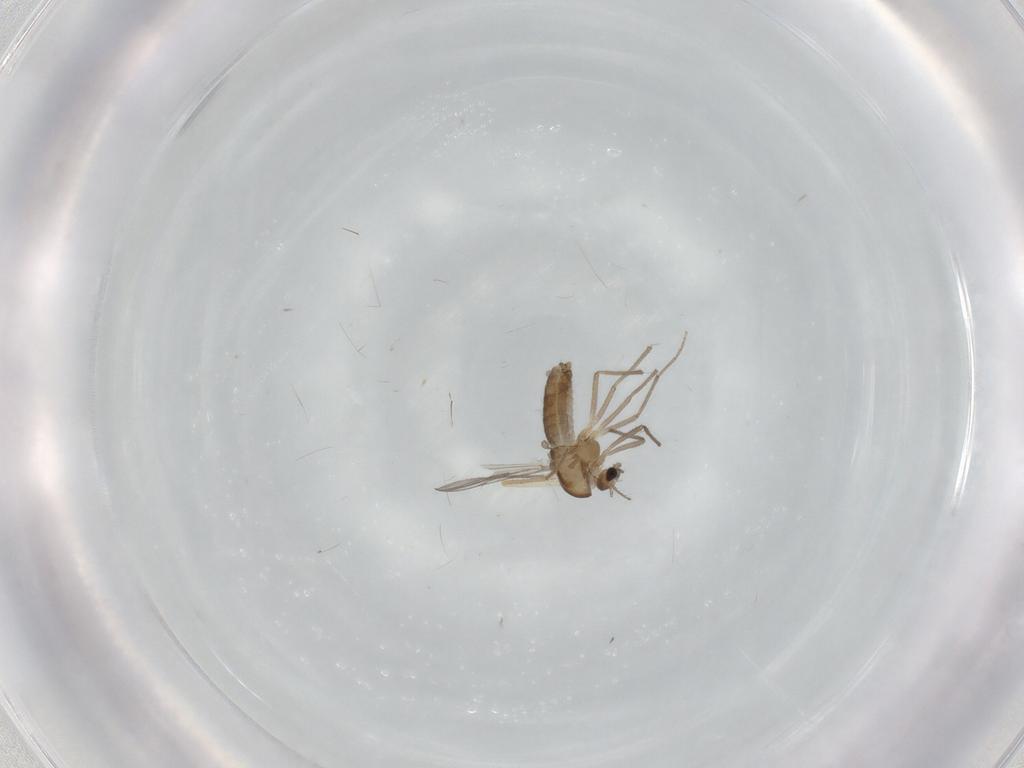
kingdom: Animalia
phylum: Arthropoda
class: Insecta
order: Diptera
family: Chironomidae
